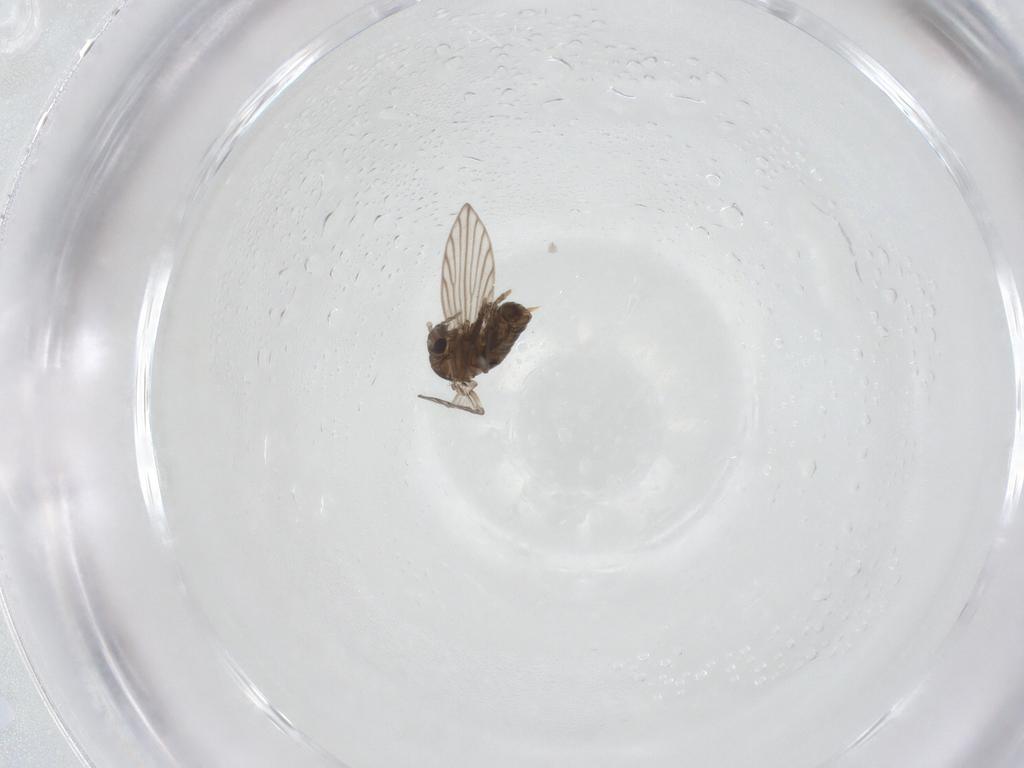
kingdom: Animalia
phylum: Arthropoda
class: Insecta
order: Diptera
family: Psychodidae
